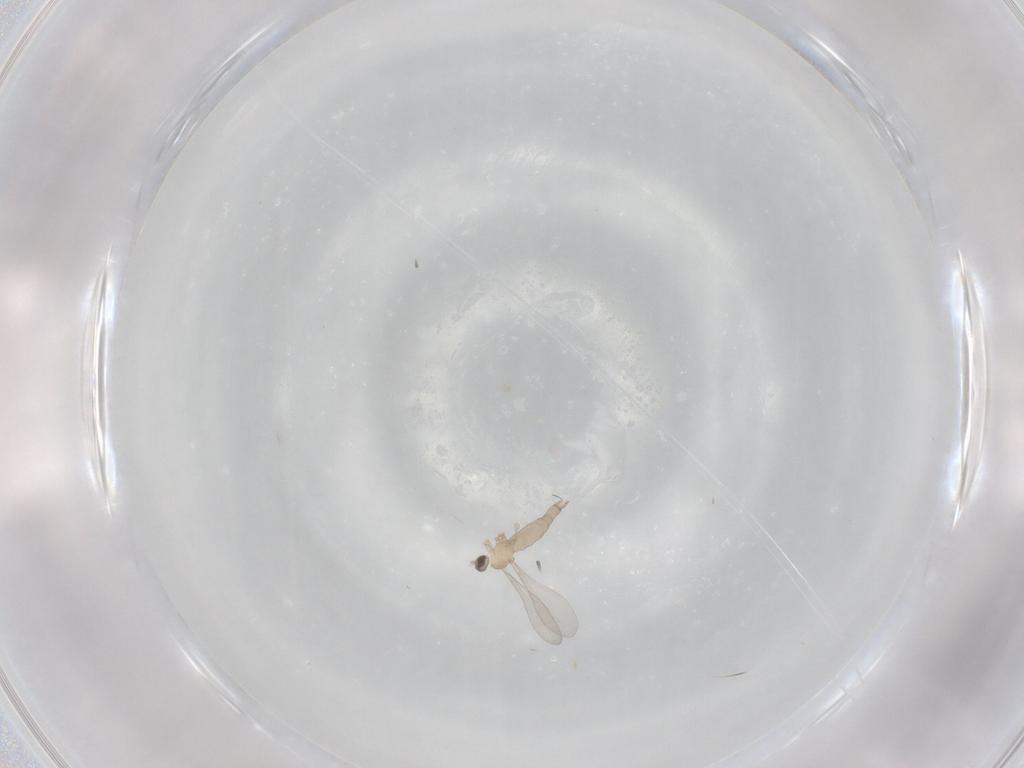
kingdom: Animalia
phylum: Arthropoda
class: Insecta
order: Diptera
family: Cecidomyiidae
